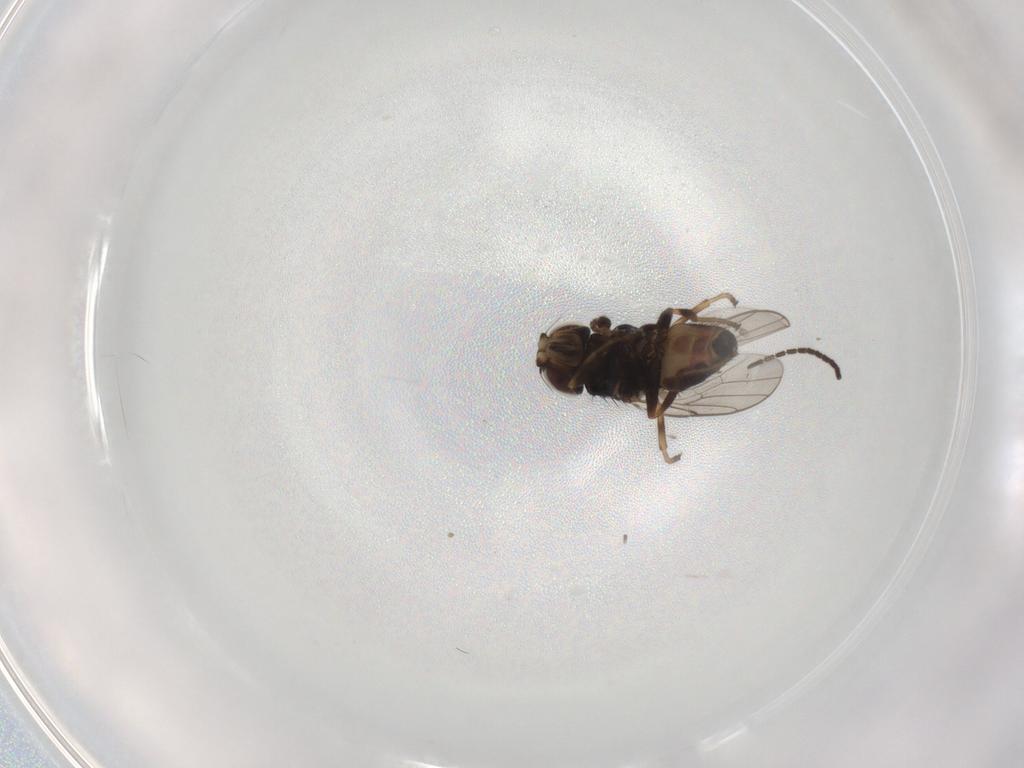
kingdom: Animalia
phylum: Arthropoda
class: Insecta
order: Diptera
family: Chloropidae
